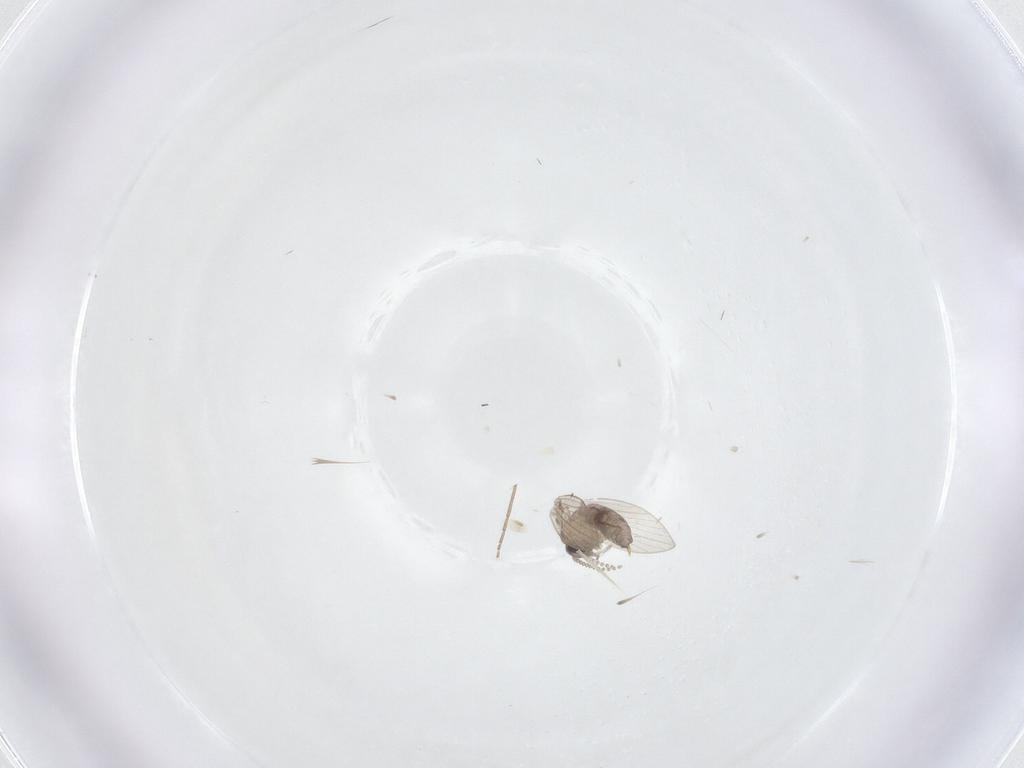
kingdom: Animalia
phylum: Arthropoda
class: Insecta
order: Diptera
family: Psychodidae
